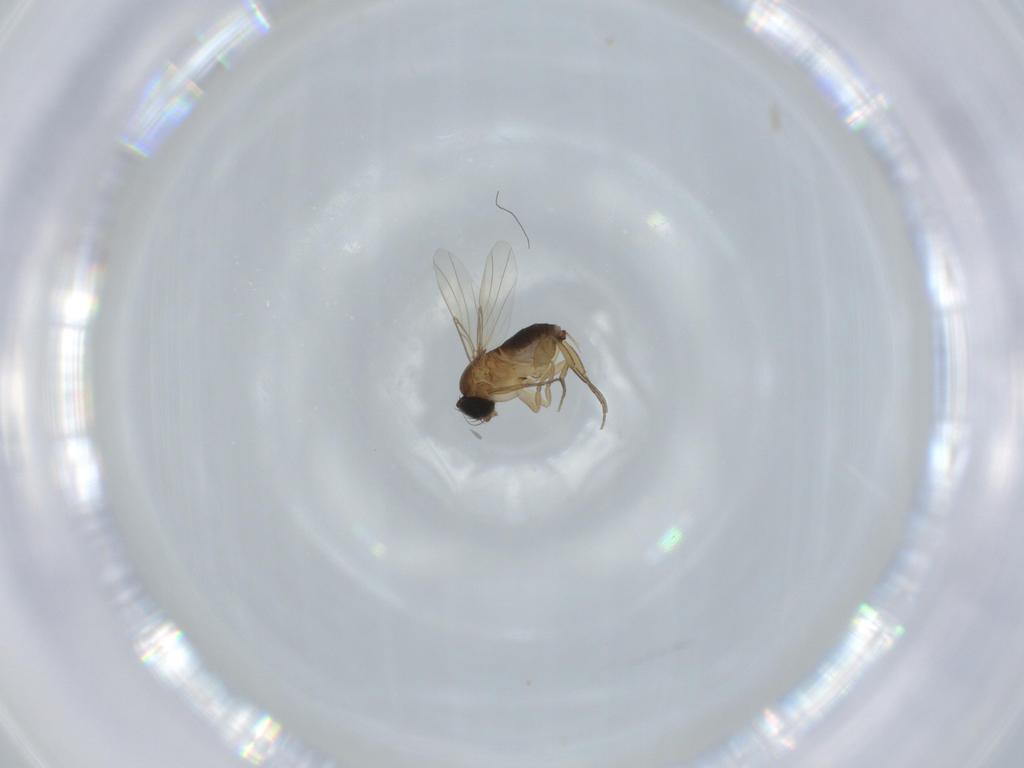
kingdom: Animalia
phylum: Arthropoda
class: Insecta
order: Diptera
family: Phoridae
